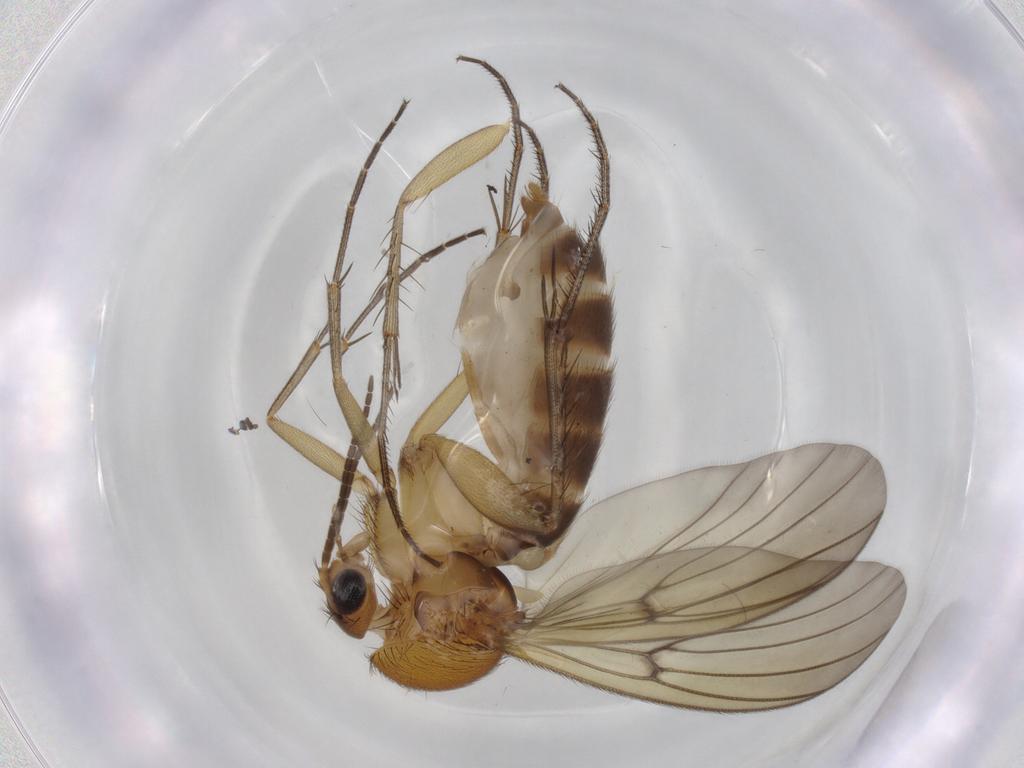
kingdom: Animalia
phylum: Arthropoda
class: Insecta
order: Diptera
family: Mycetophilidae
